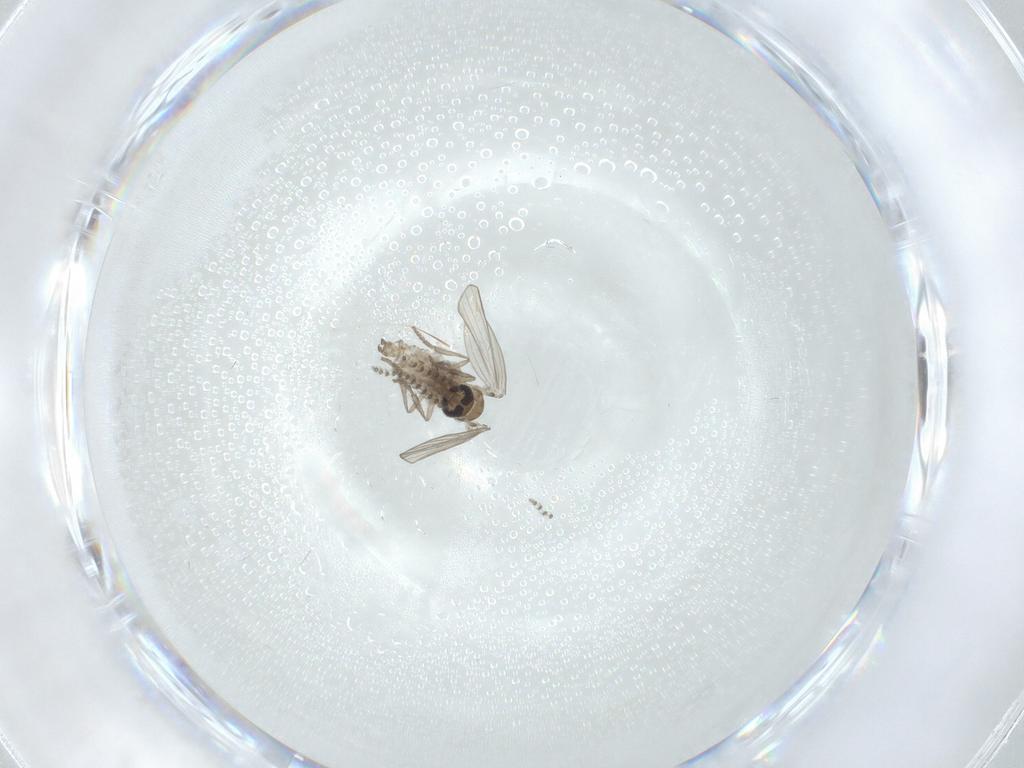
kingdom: Animalia
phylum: Arthropoda
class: Insecta
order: Diptera
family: Psychodidae
